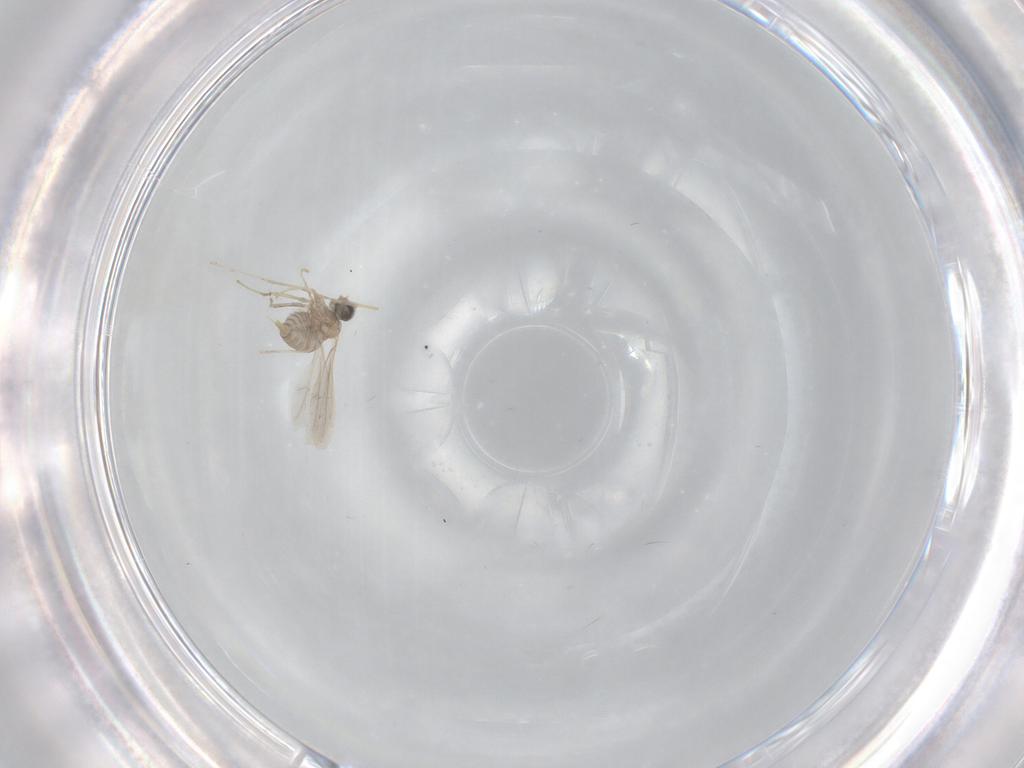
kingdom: Animalia
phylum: Arthropoda
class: Insecta
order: Diptera
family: Cecidomyiidae
